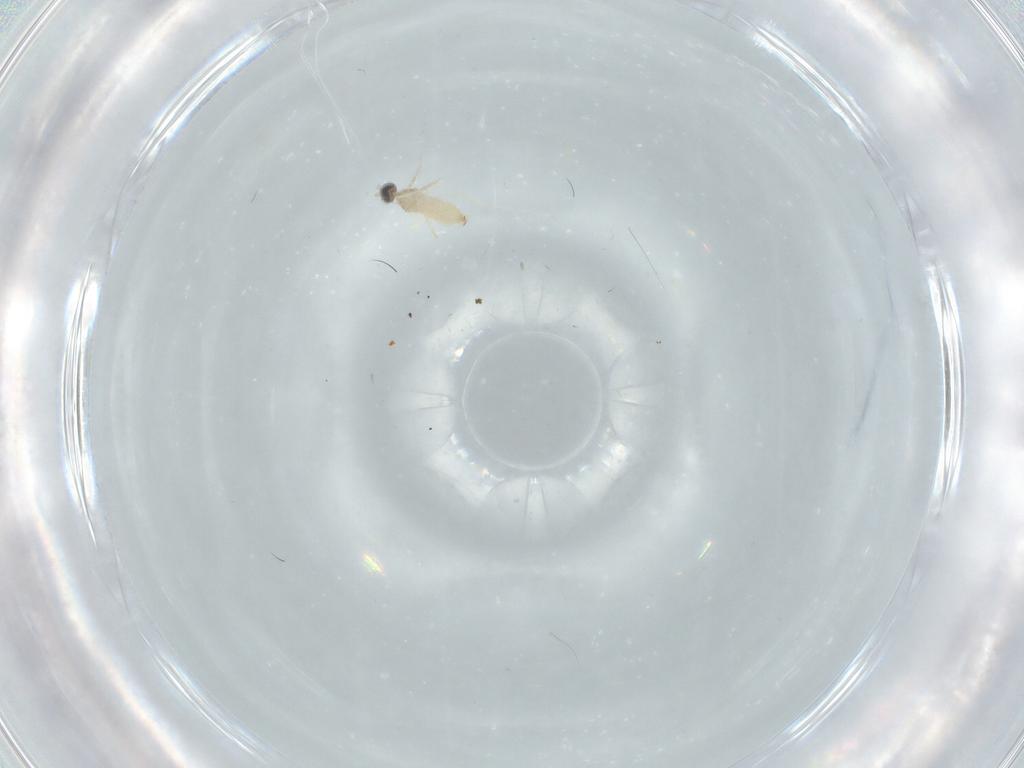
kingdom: Animalia
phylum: Arthropoda
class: Insecta
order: Diptera
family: Cecidomyiidae
